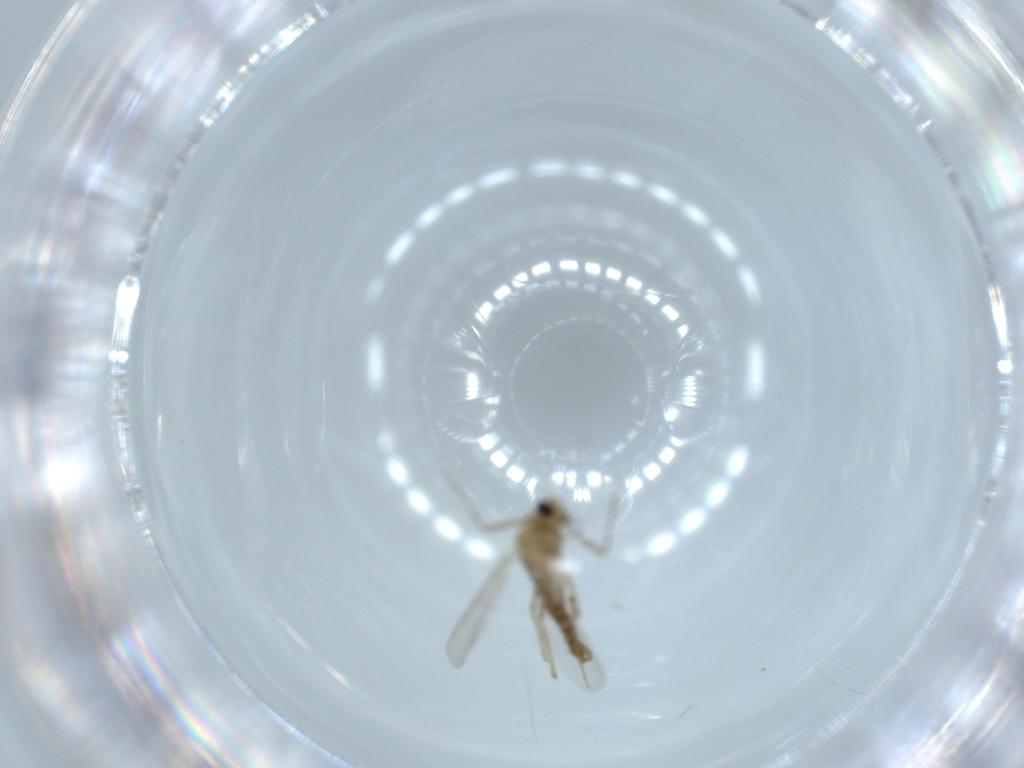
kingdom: Animalia
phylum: Arthropoda
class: Insecta
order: Diptera
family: Chironomidae
